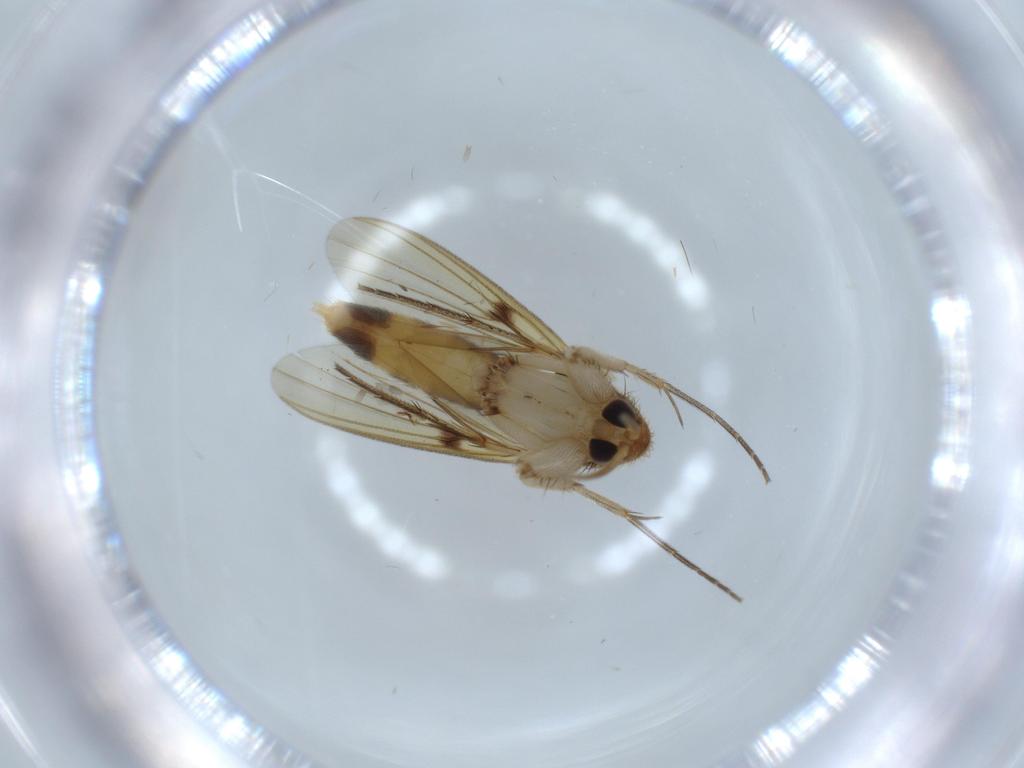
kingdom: Animalia
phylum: Arthropoda
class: Insecta
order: Diptera
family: Mycetophilidae
